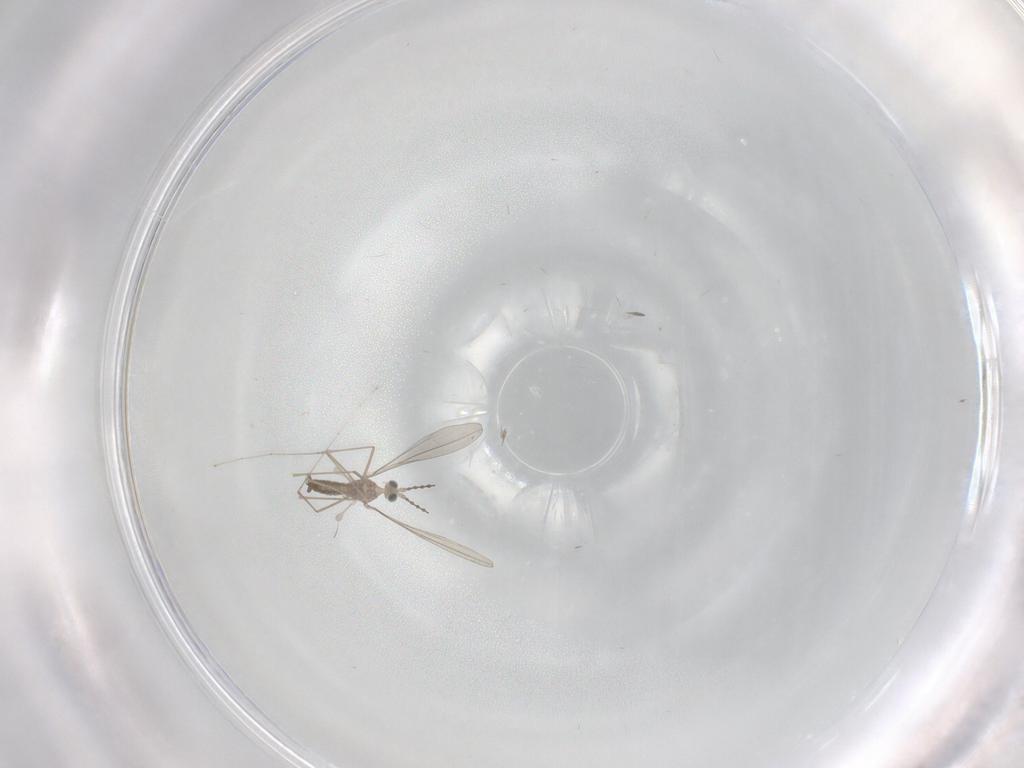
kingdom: Animalia
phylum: Arthropoda
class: Insecta
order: Diptera
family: Cecidomyiidae
